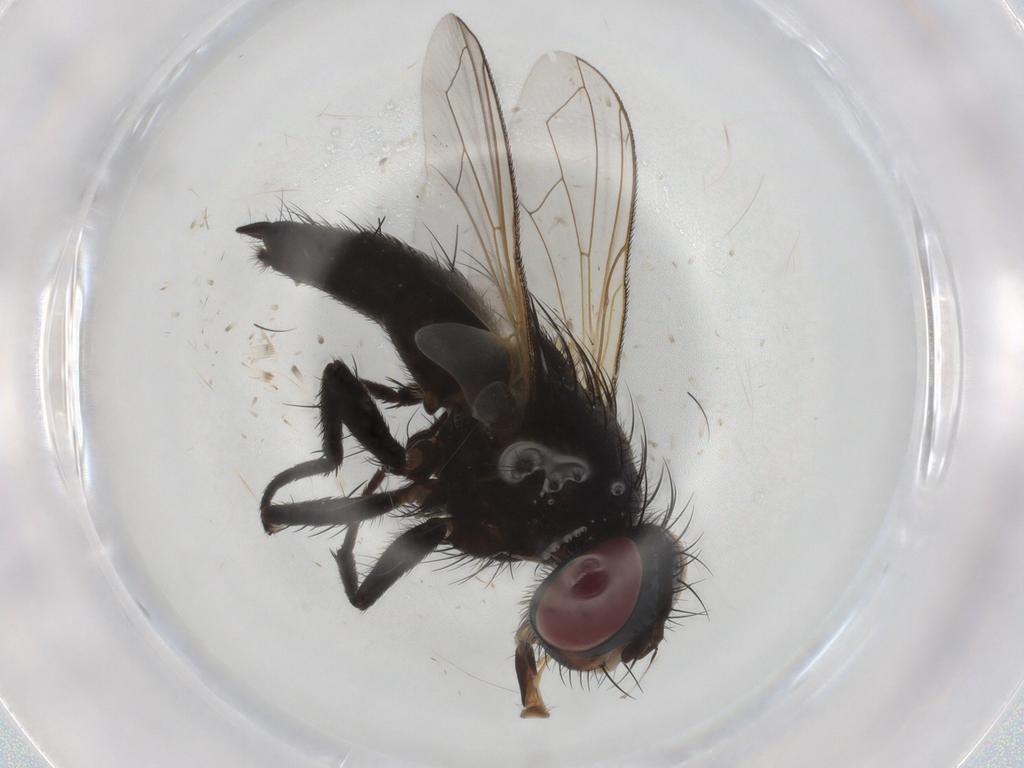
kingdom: Animalia
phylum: Arthropoda
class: Insecta
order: Diptera
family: Tachinidae
